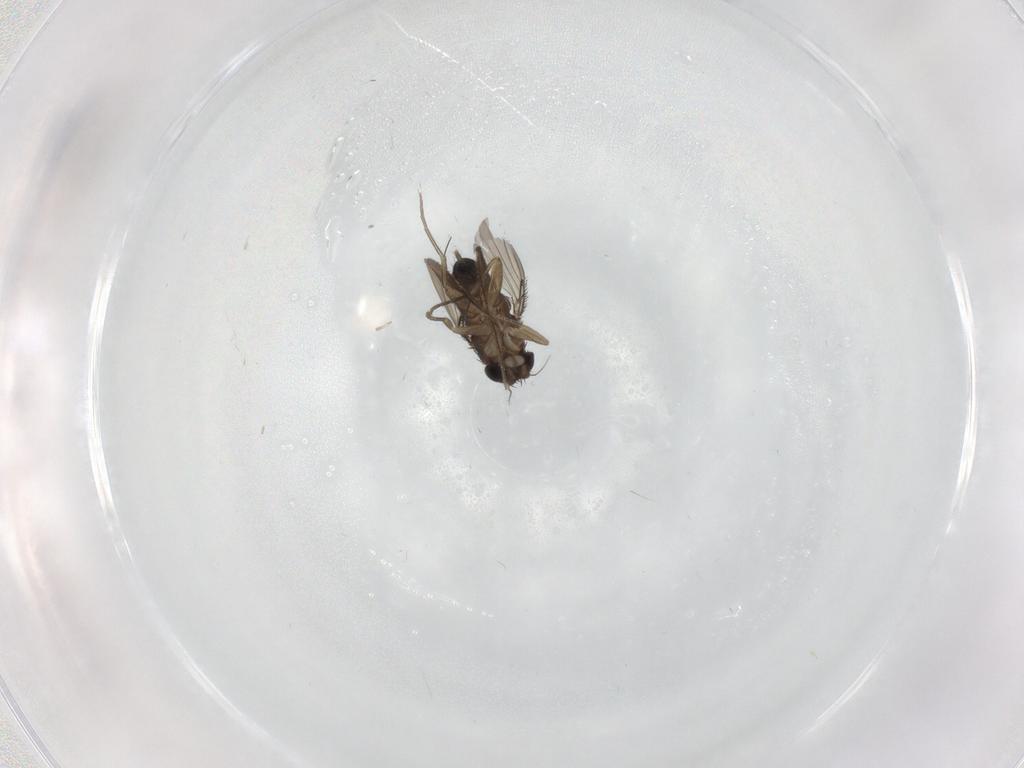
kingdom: Animalia
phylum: Arthropoda
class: Insecta
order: Diptera
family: Phoridae
